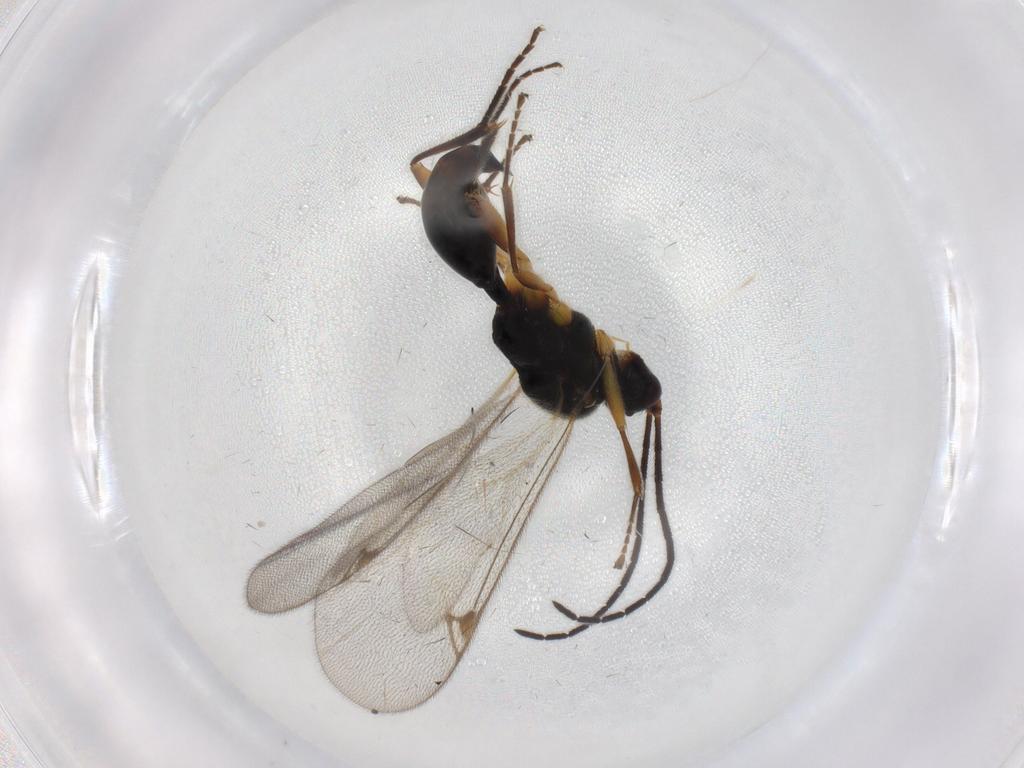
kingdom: Animalia
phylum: Arthropoda
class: Insecta
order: Hymenoptera
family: Proctotrupidae
